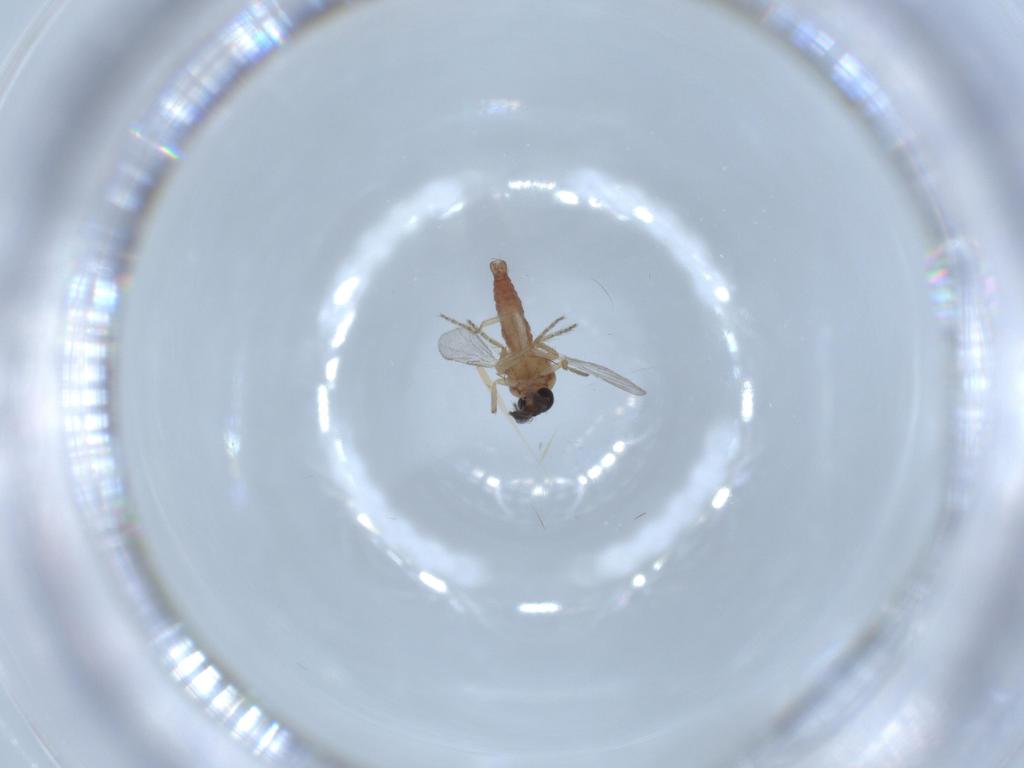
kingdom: Animalia
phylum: Arthropoda
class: Insecta
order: Diptera
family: Ceratopogonidae
